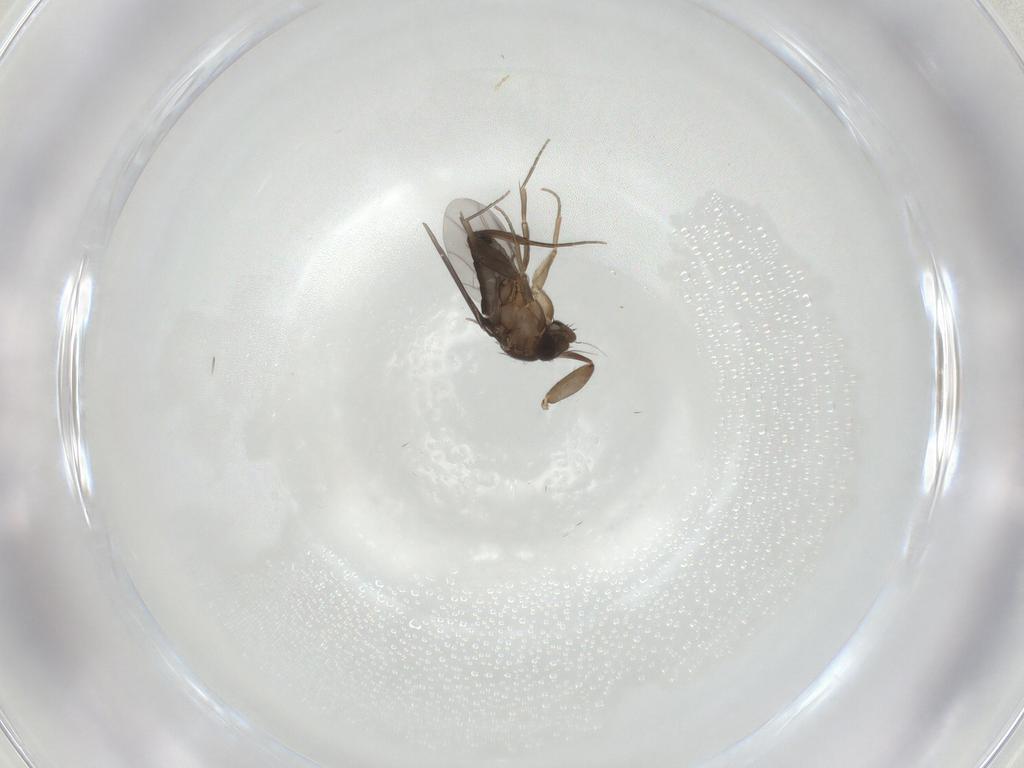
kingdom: Animalia
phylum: Arthropoda
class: Insecta
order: Diptera
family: Phoridae
